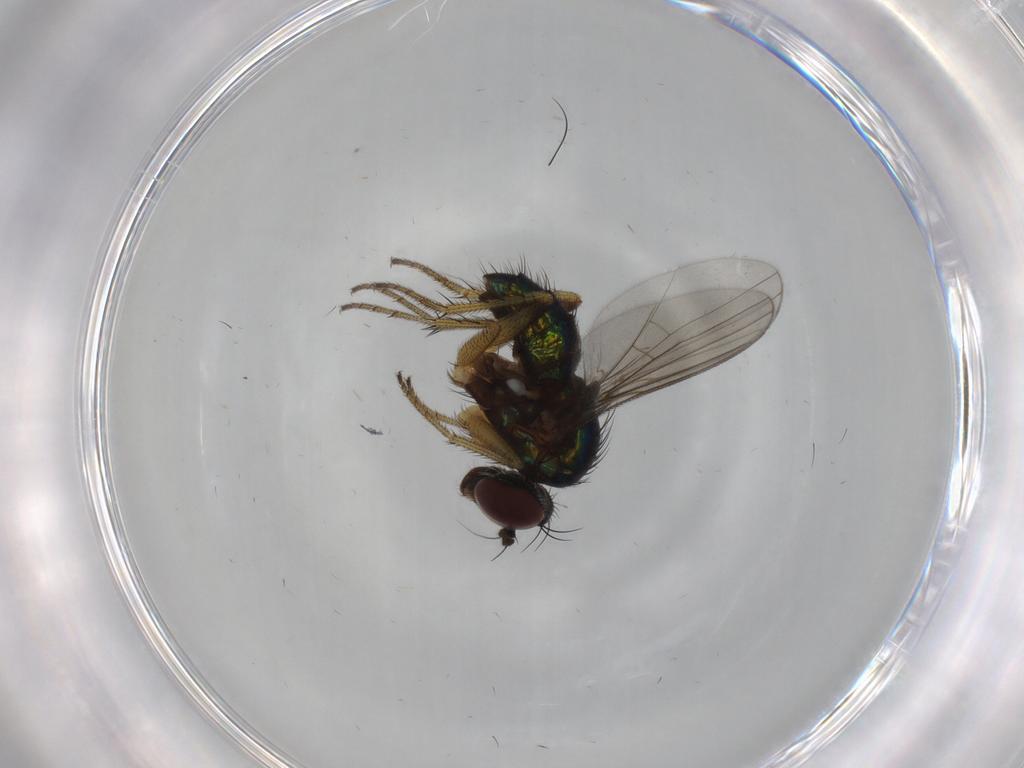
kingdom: Animalia
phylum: Arthropoda
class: Insecta
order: Diptera
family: Dolichopodidae
